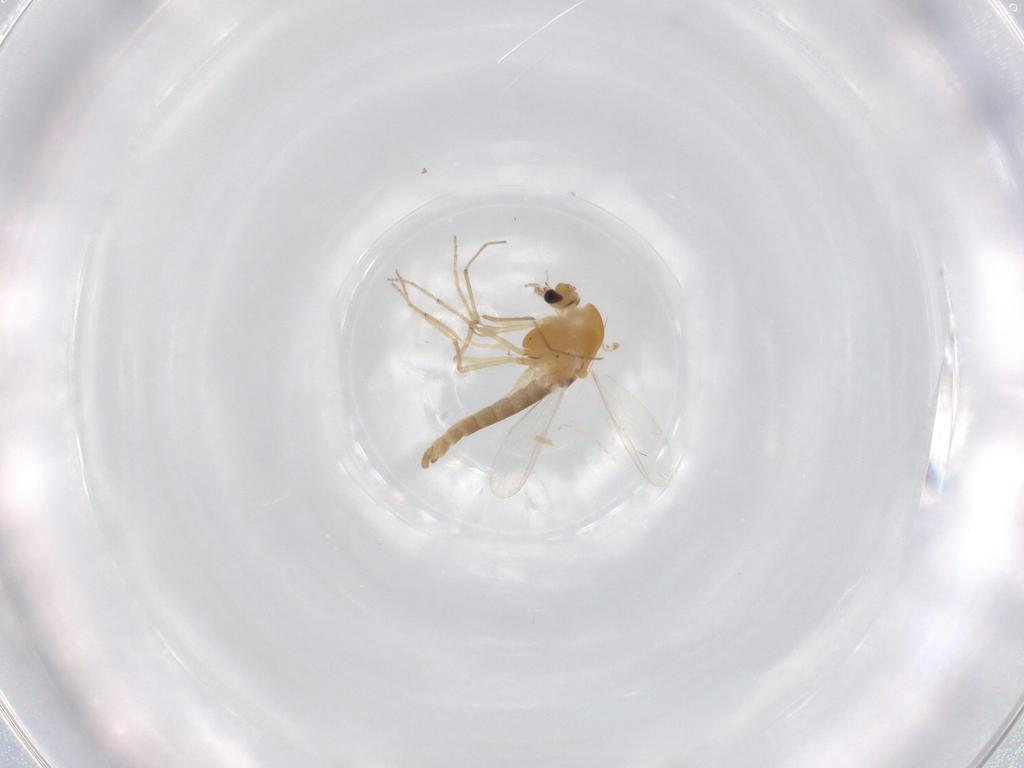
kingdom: Animalia
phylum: Arthropoda
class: Insecta
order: Diptera
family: Chironomidae
